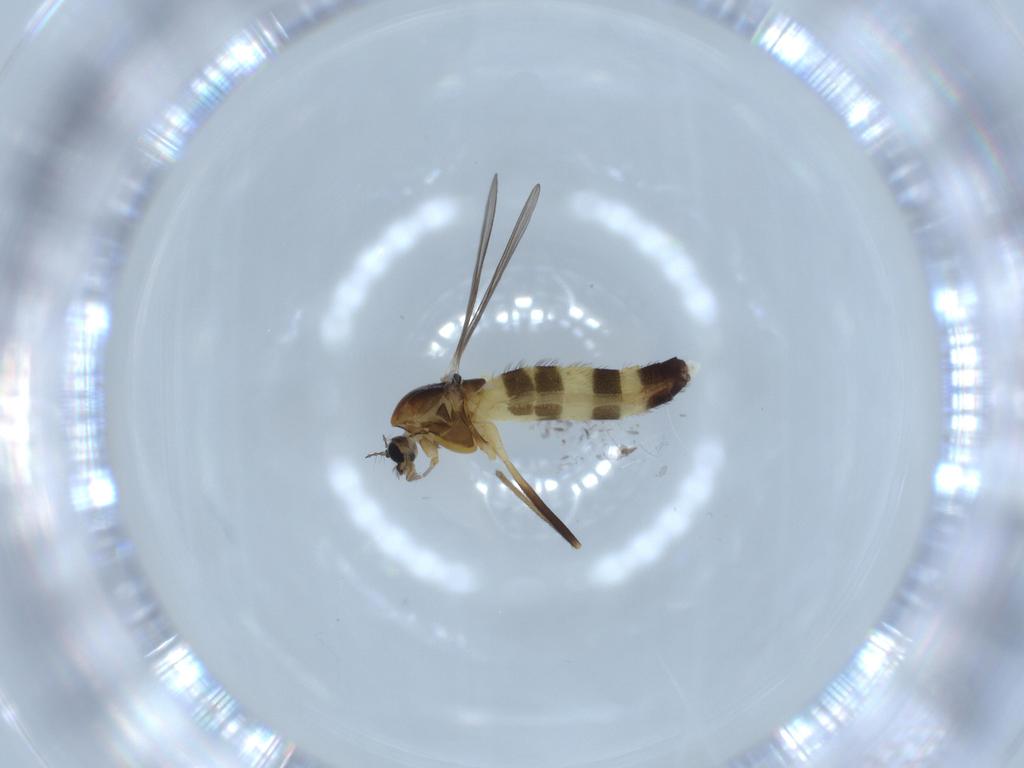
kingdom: Animalia
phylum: Arthropoda
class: Insecta
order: Diptera
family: Chironomidae
